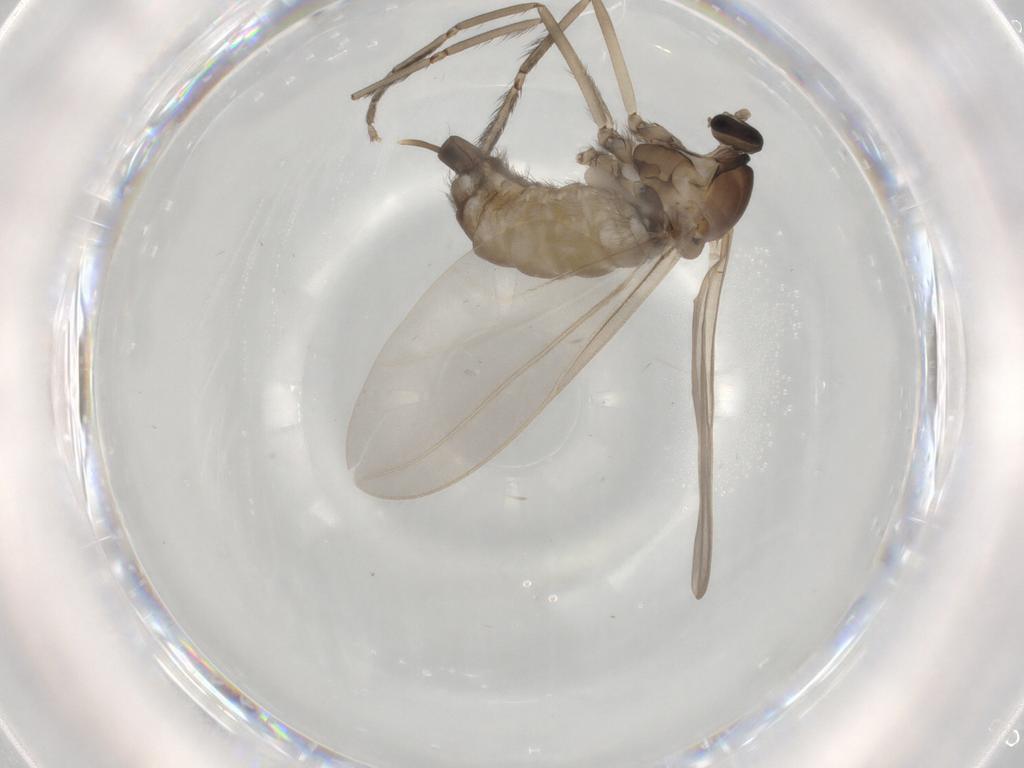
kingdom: Animalia
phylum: Arthropoda
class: Insecta
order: Diptera
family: Cecidomyiidae
